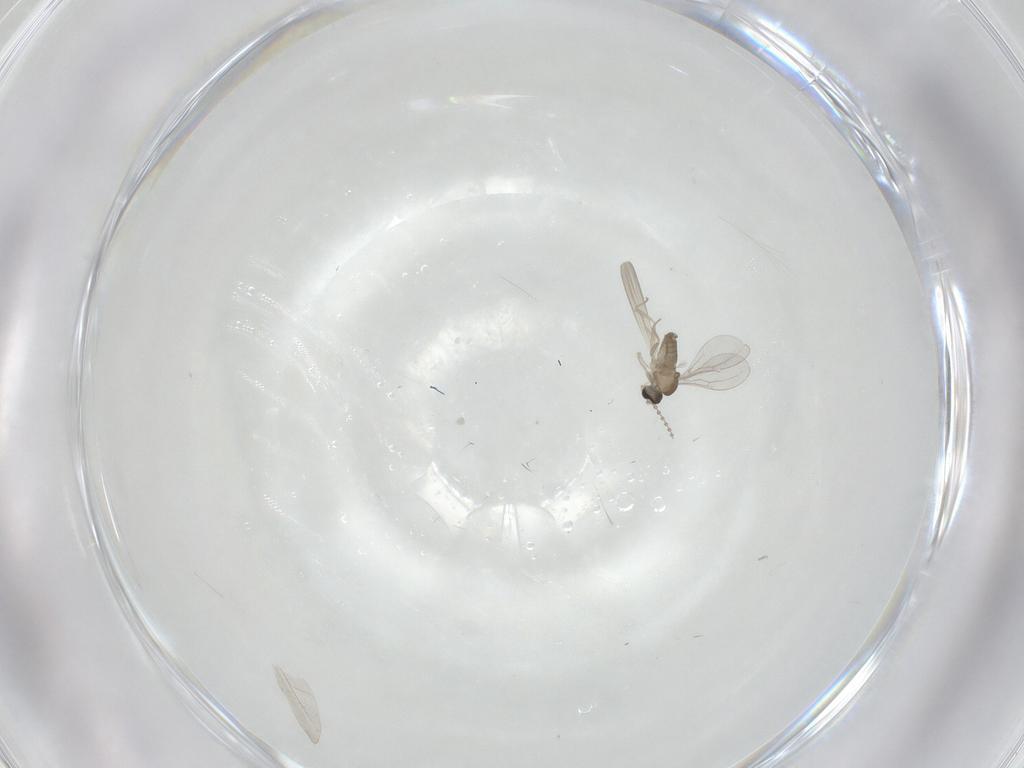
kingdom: Animalia
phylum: Arthropoda
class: Insecta
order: Diptera
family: Cecidomyiidae
